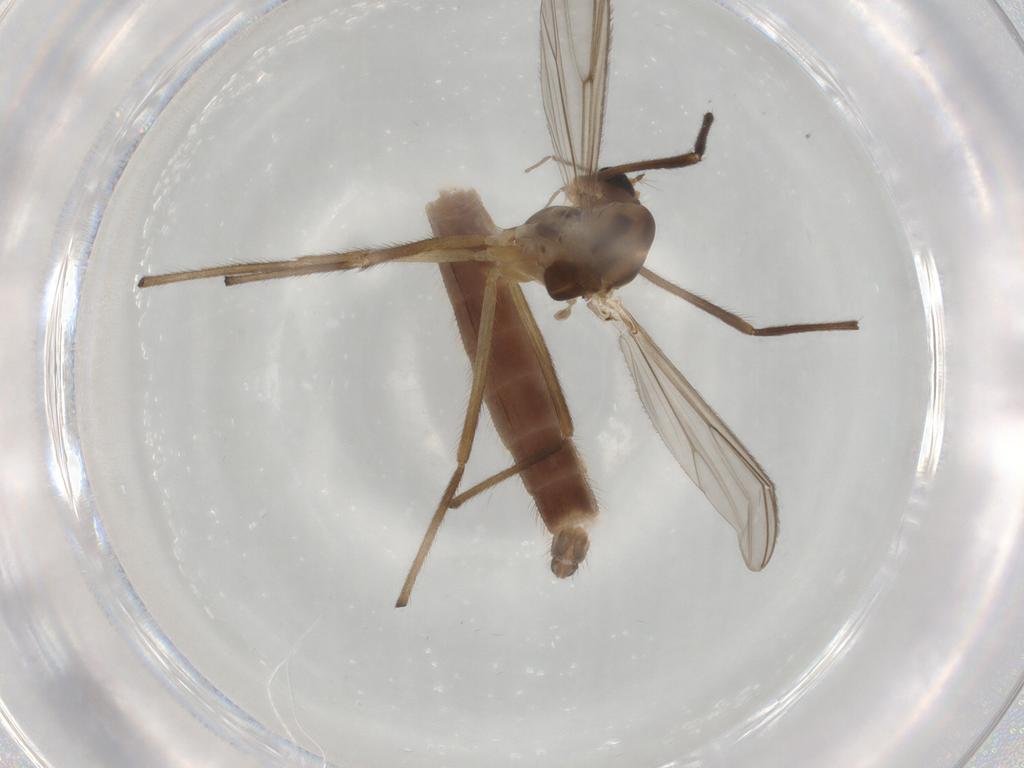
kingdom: Animalia
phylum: Arthropoda
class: Insecta
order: Diptera
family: Chironomidae
